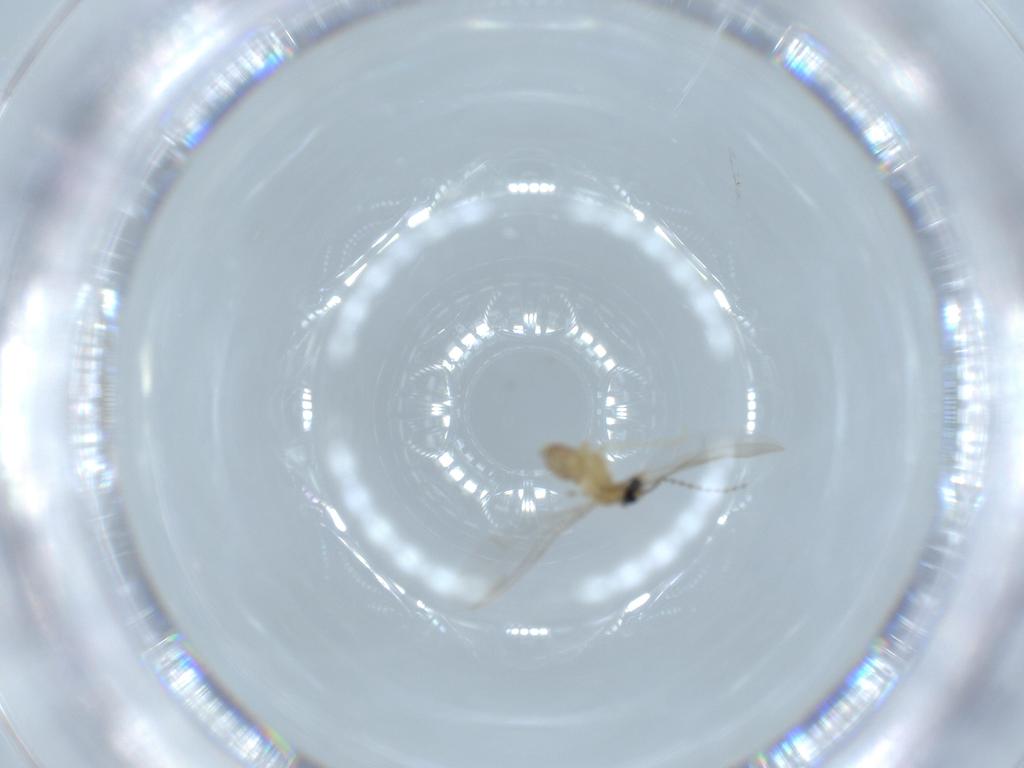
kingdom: Animalia
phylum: Arthropoda
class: Insecta
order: Diptera
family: Cecidomyiidae
